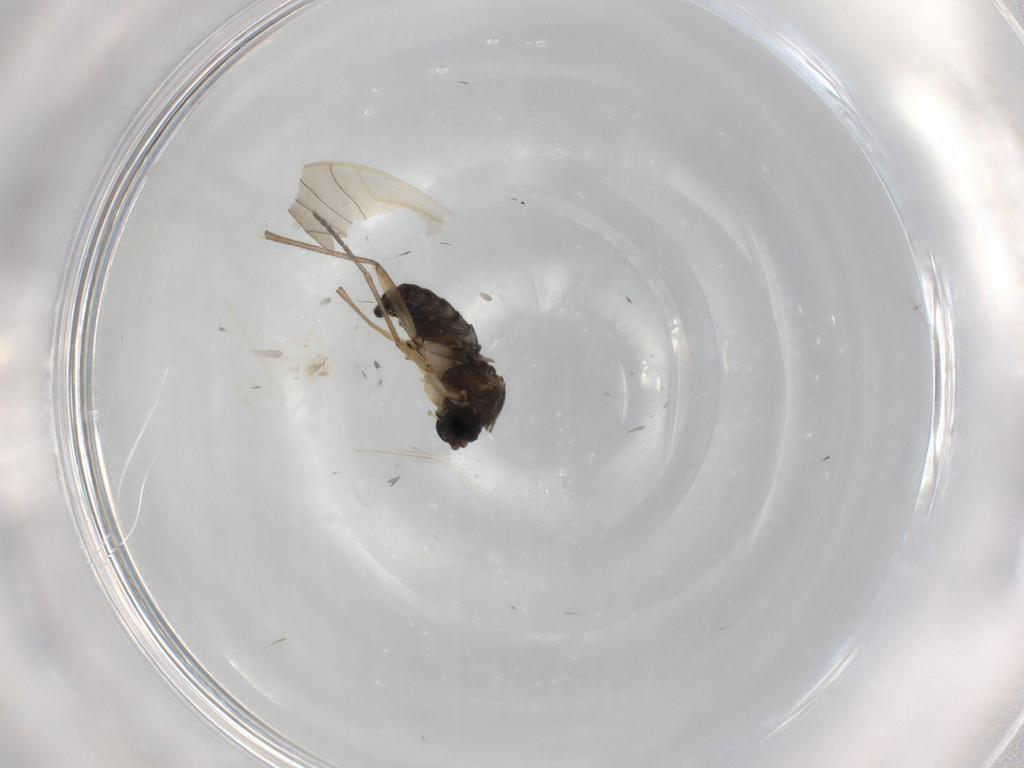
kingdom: Animalia
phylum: Arthropoda
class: Insecta
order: Diptera
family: Sciaridae
